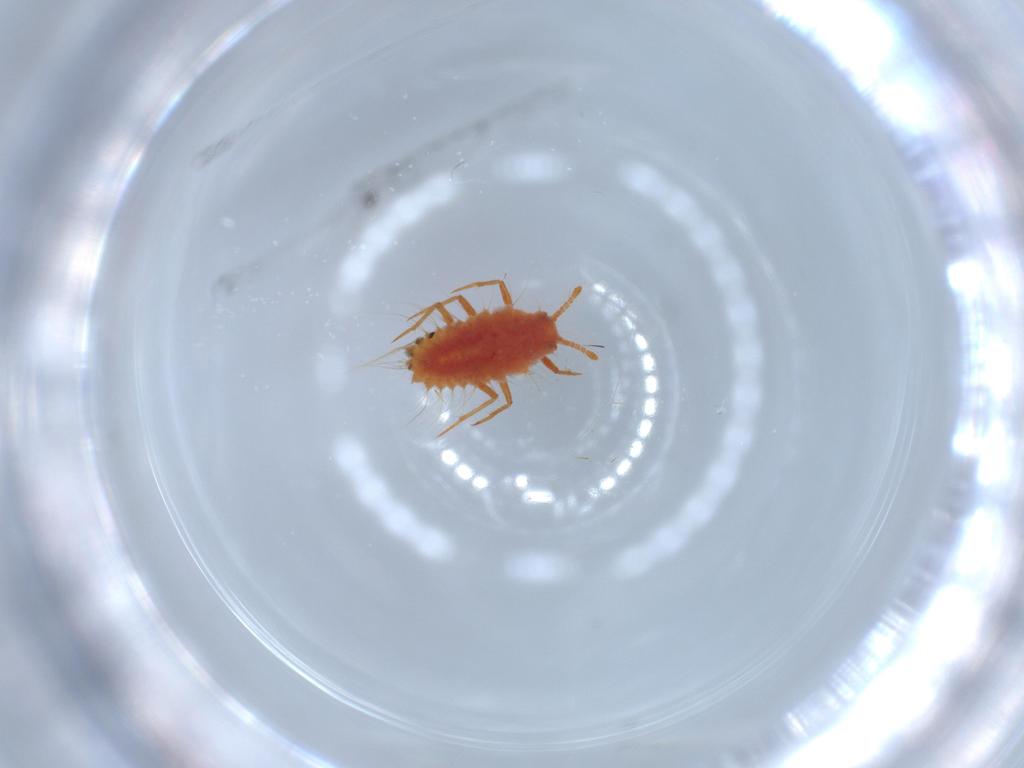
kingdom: Animalia
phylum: Arthropoda
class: Insecta
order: Hemiptera
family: Monophlebidae
